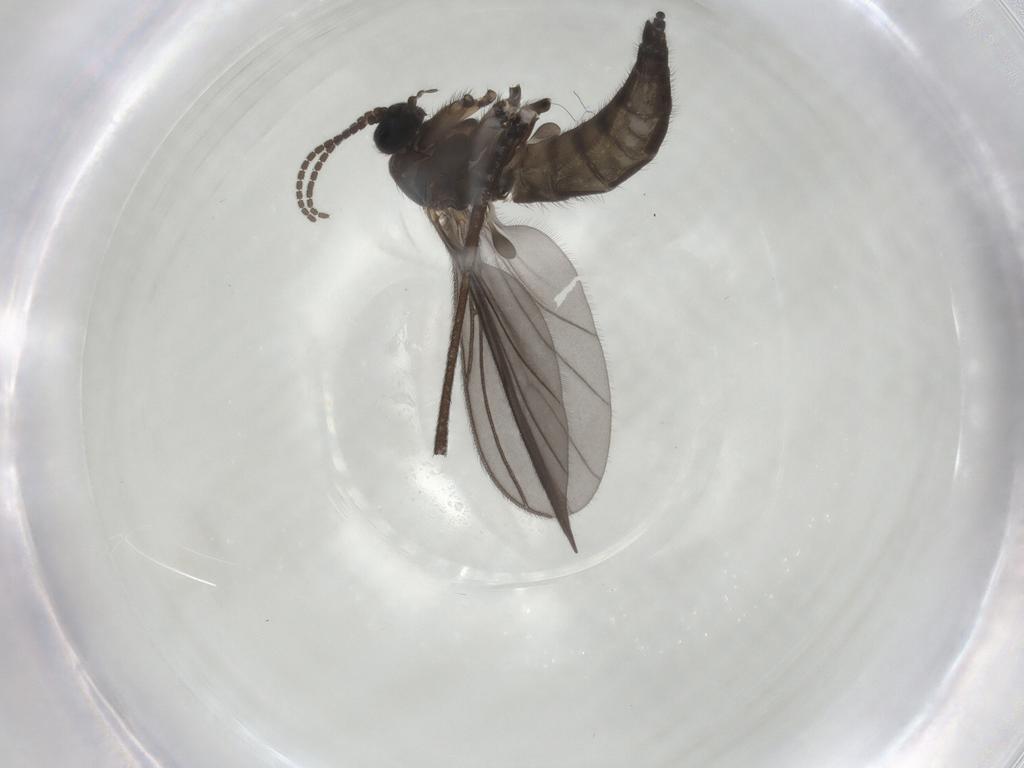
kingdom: Animalia
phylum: Arthropoda
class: Insecta
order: Diptera
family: Sciaridae
